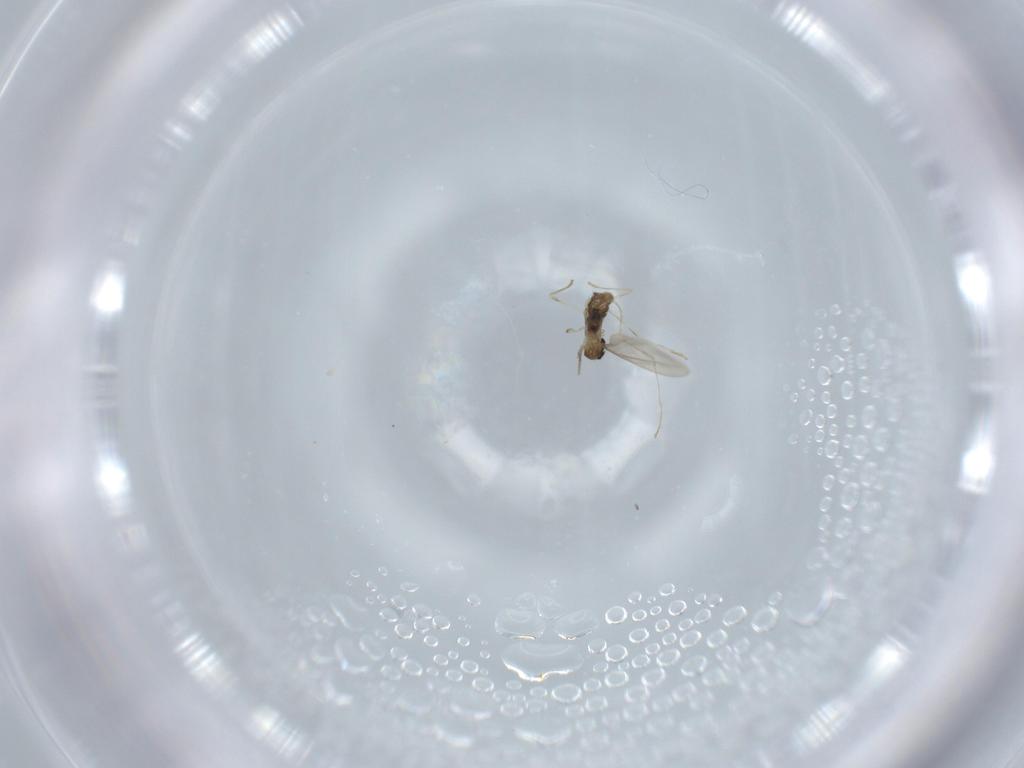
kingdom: Animalia
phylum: Arthropoda
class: Insecta
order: Diptera
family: Cecidomyiidae
